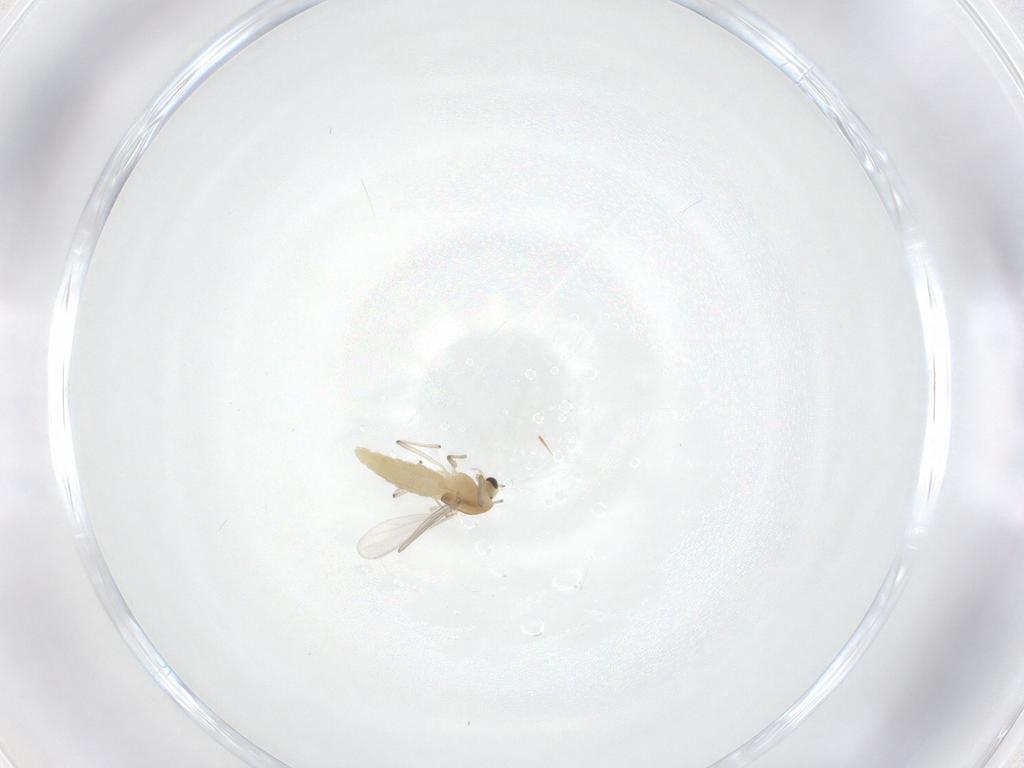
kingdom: Animalia
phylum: Arthropoda
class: Insecta
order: Diptera
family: Chironomidae
